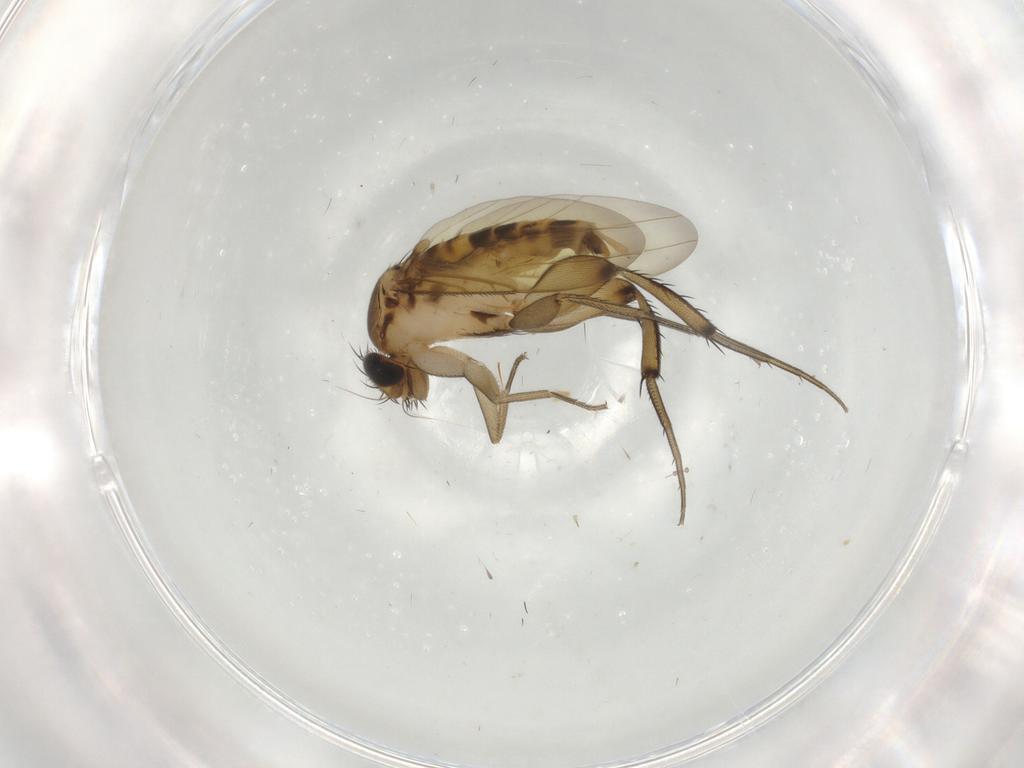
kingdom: Animalia
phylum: Arthropoda
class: Insecta
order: Diptera
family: Phoridae
